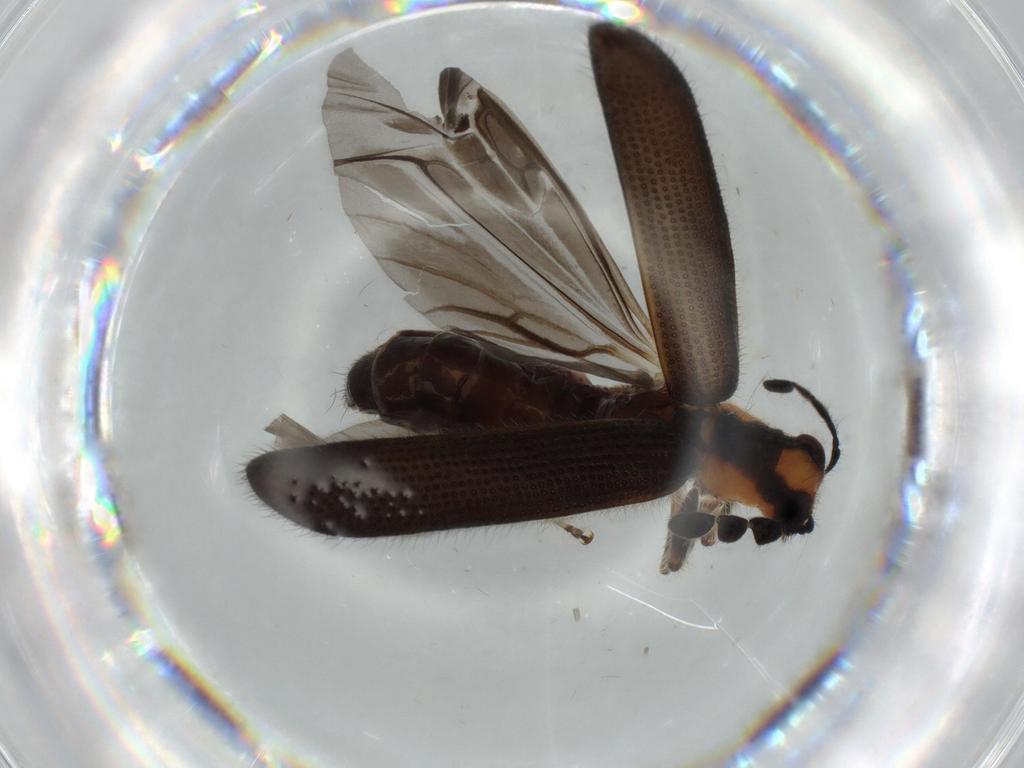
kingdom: Animalia
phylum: Arthropoda
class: Insecta
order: Coleoptera
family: Cleridae
